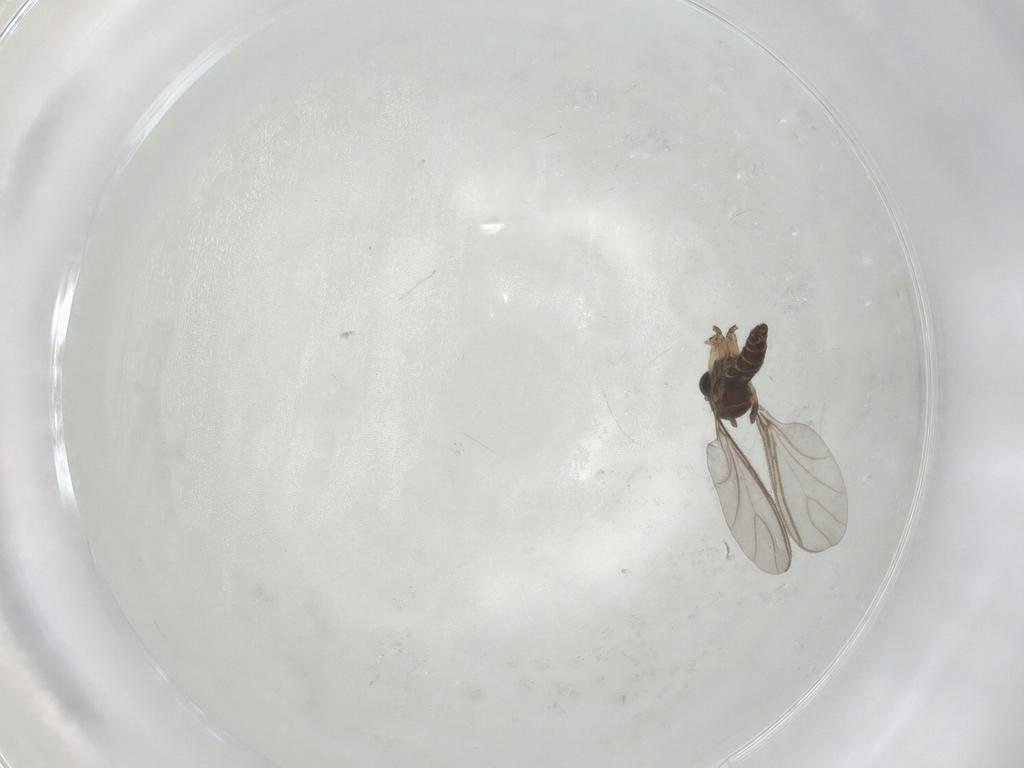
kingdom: Animalia
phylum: Arthropoda
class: Insecta
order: Diptera
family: Sciaridae
